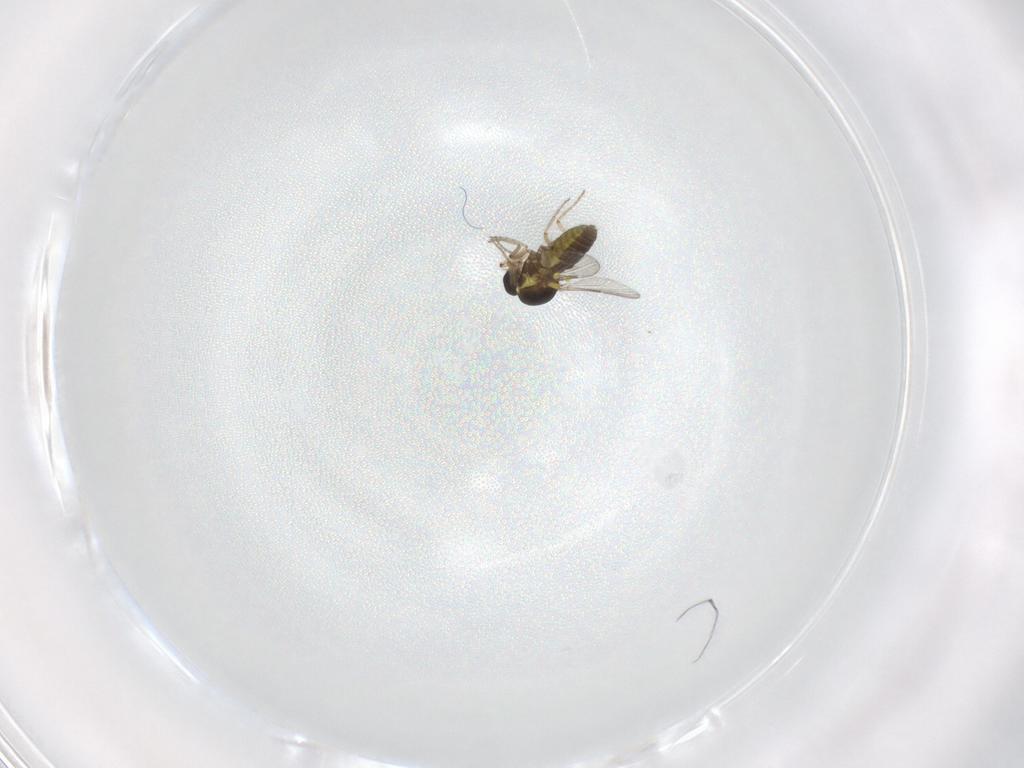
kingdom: Animalia
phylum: Arthropoda
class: Insecta
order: Diptera
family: Ceratopogonidae
